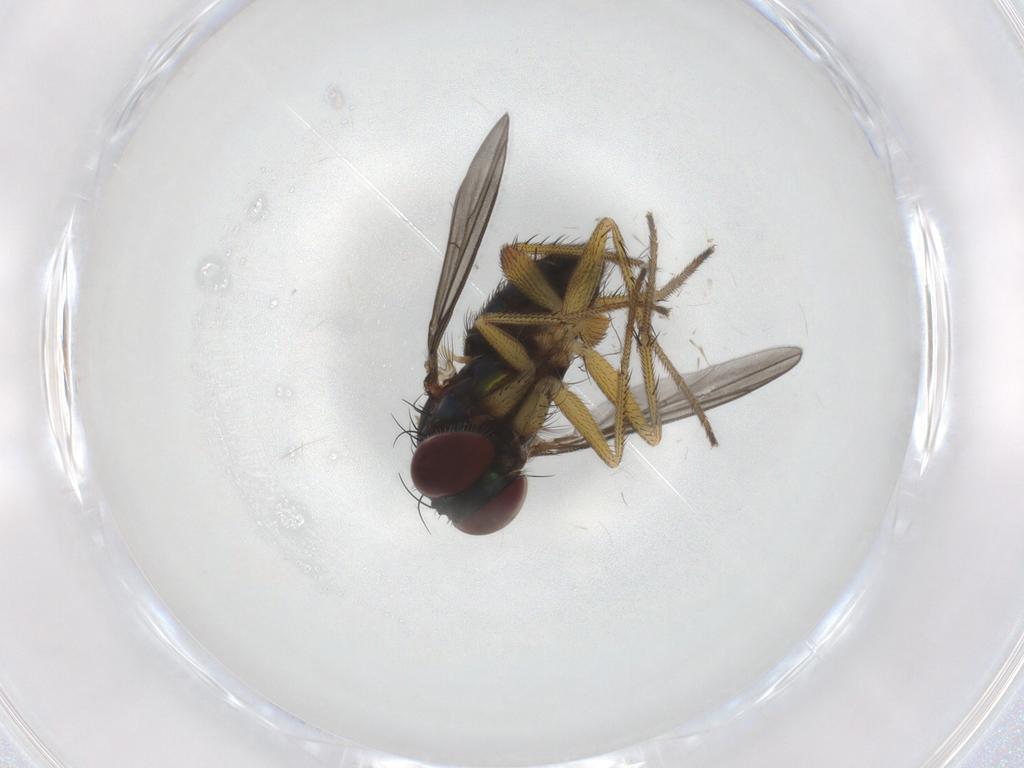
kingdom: Animalia
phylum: Arthropoda
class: Insecta
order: Diptera
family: Dolichopodidae
